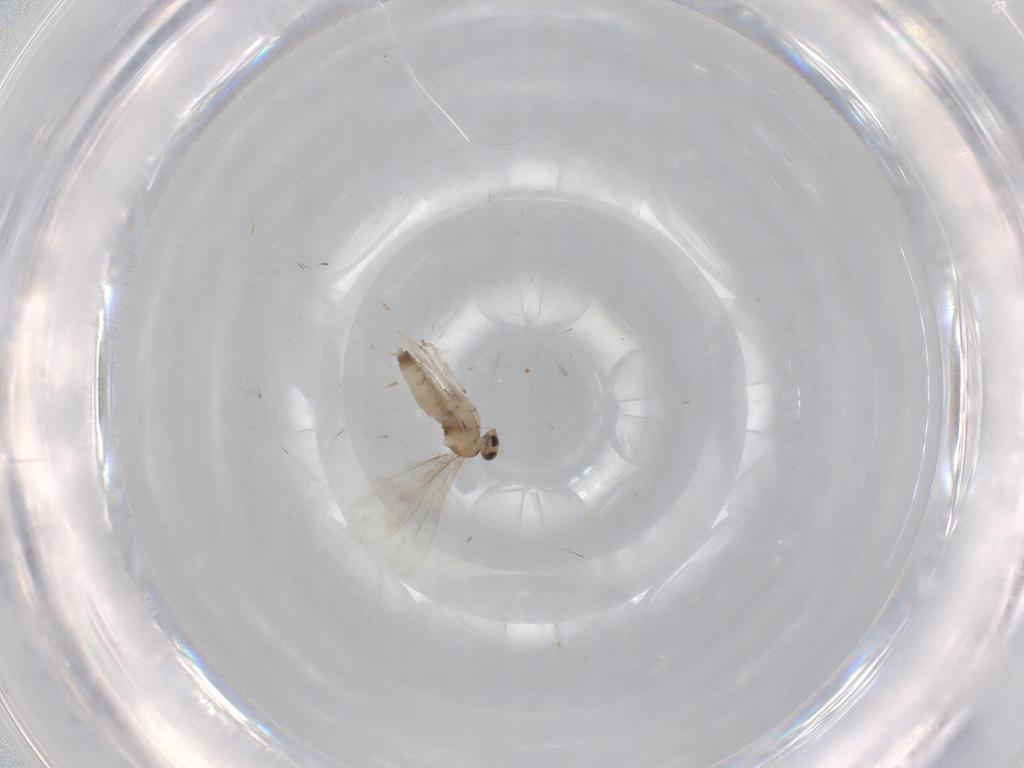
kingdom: Animalia
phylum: Arthropoda
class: Insecta
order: Diptera
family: Cecidomyiidae
